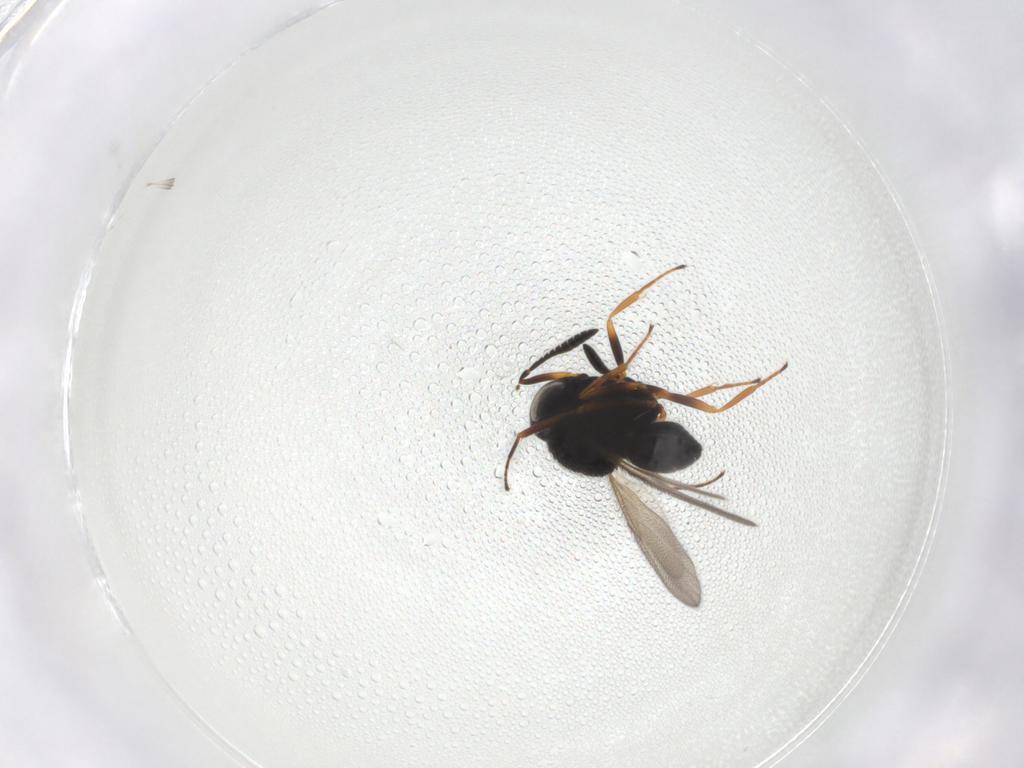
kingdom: Animalia
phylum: Arthropoda
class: Insecta
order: Hymenoptera
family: Scelionidae
